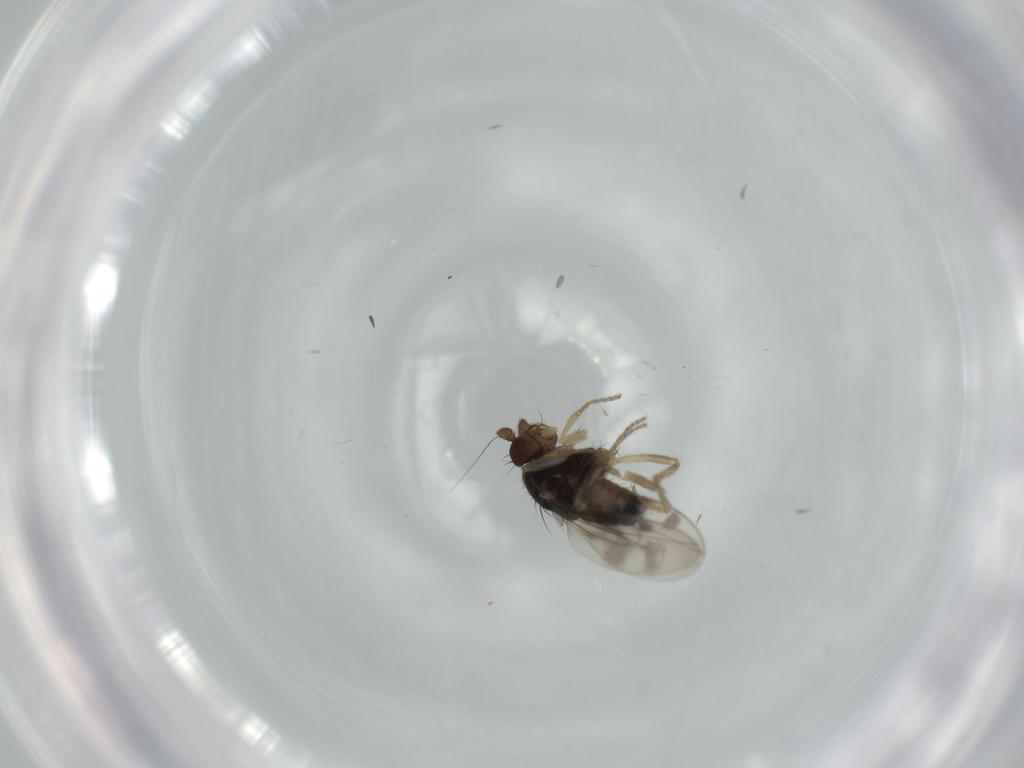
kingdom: Animalia
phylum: Arthropoda
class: Insecta
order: Diptera
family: Sphaeroceridae
